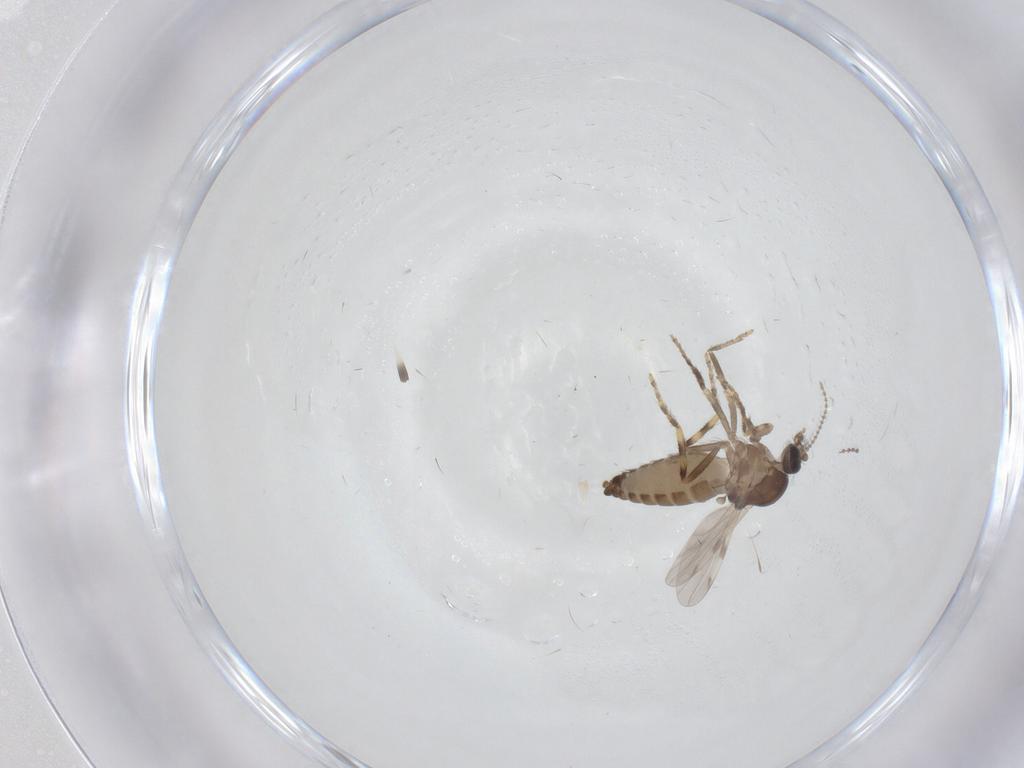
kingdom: Animalia
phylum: Arthropoda
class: Insecta
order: Diptera
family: Ceratopogonidae
